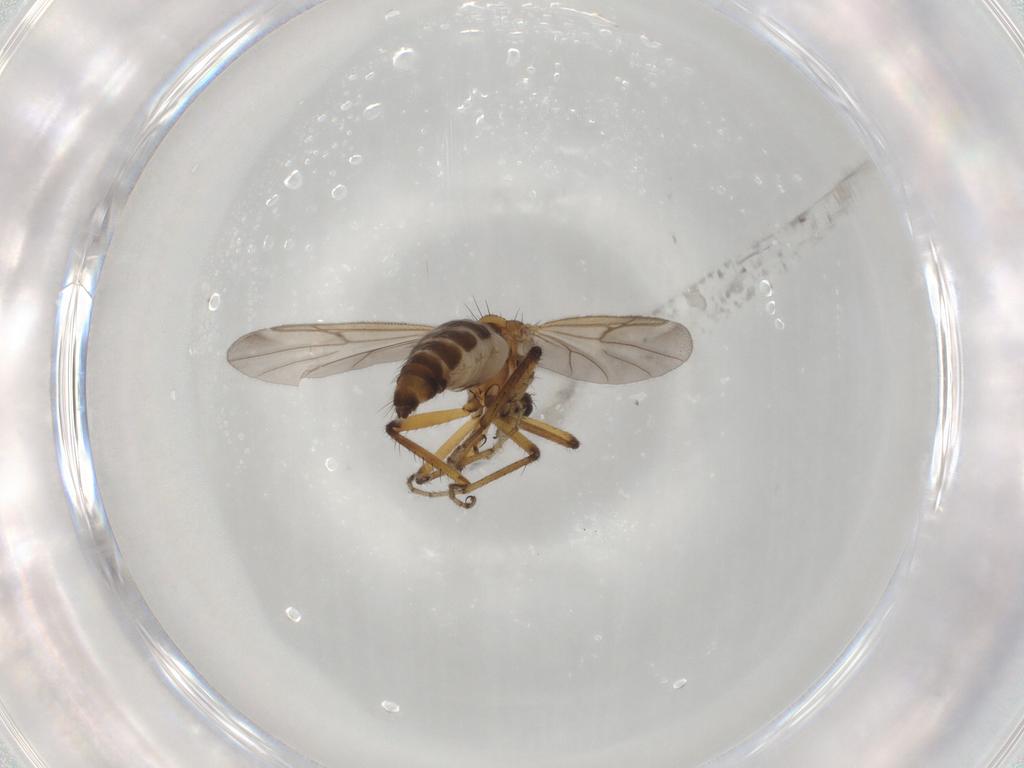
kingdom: Animalia
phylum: Arthropoda
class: Insecta
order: Diptera
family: Ceratopogonidae
